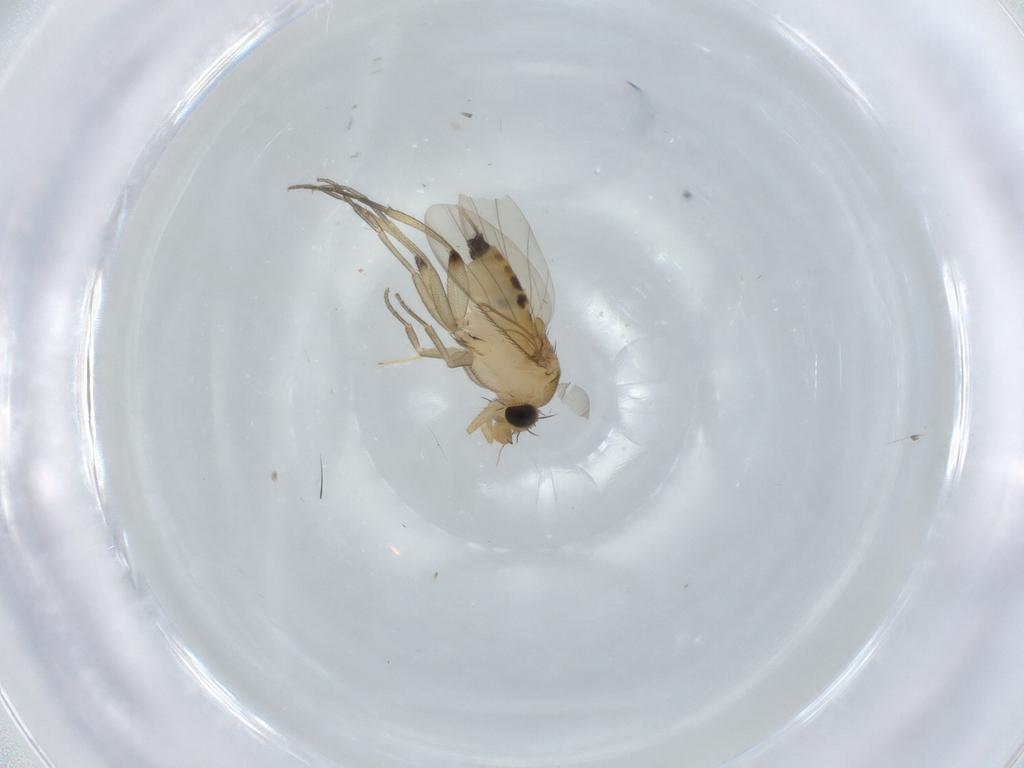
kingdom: Animalia
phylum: Arthropoda
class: Insecta
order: Diptera
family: Phoridae
